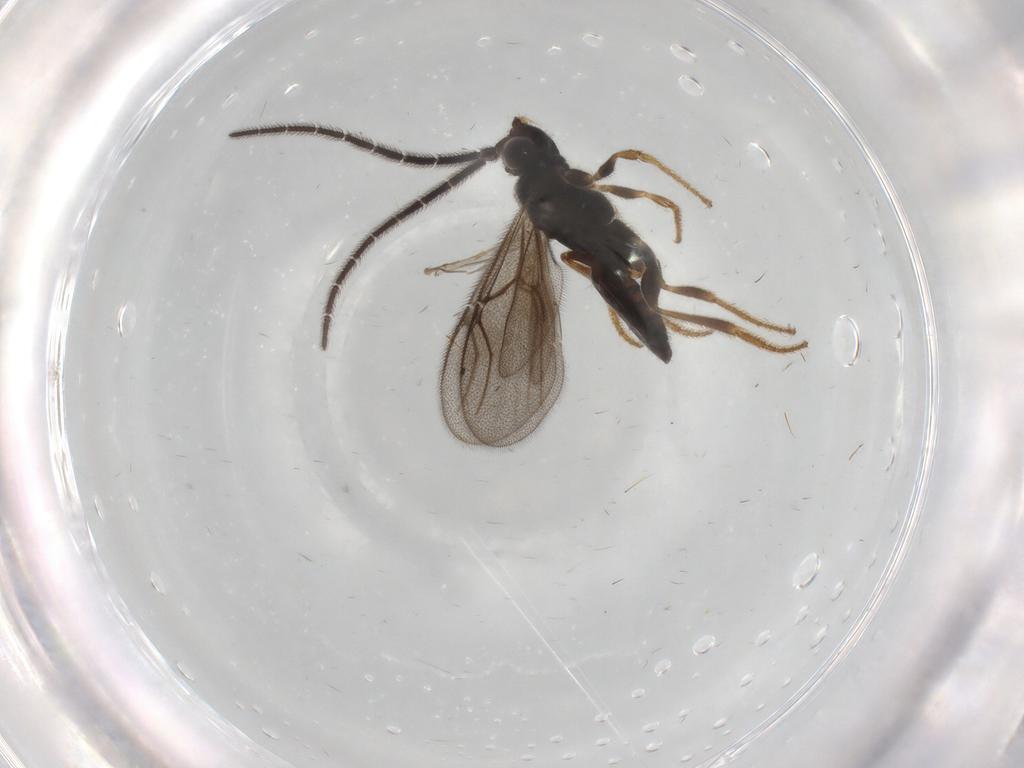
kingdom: Animalia
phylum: Arthropoda
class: Insecta
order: Hymenoptera
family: Dryinidae
